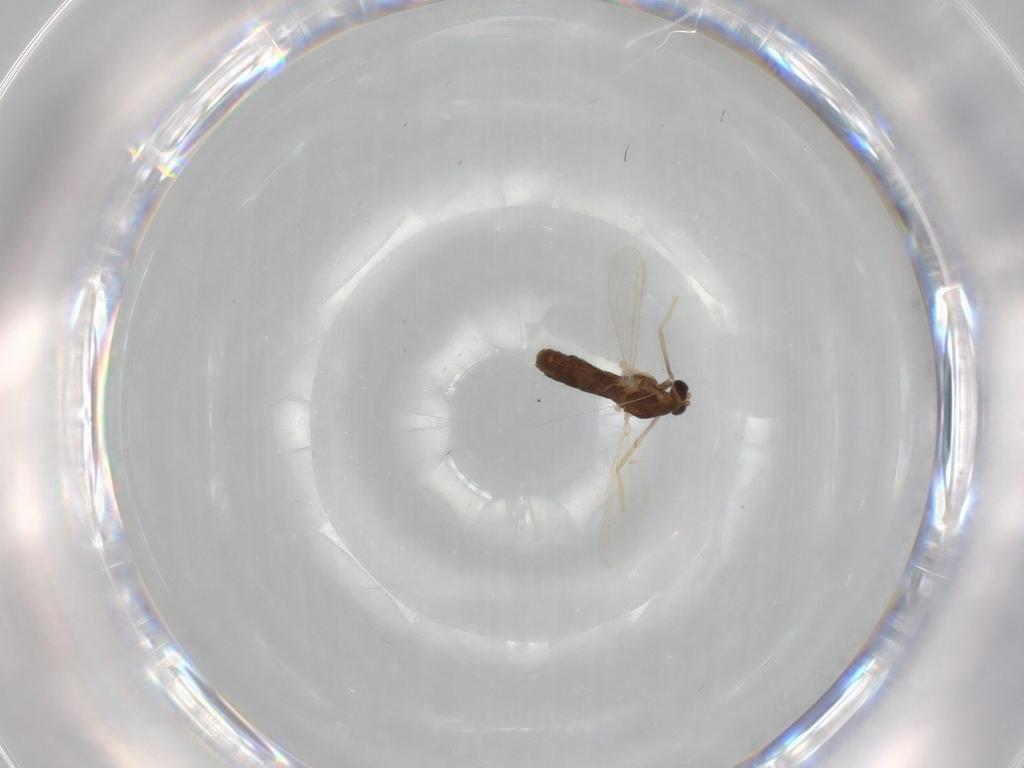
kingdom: Animalia
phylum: Arthropoda
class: Insecta
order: Diptera
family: Chironomidae
